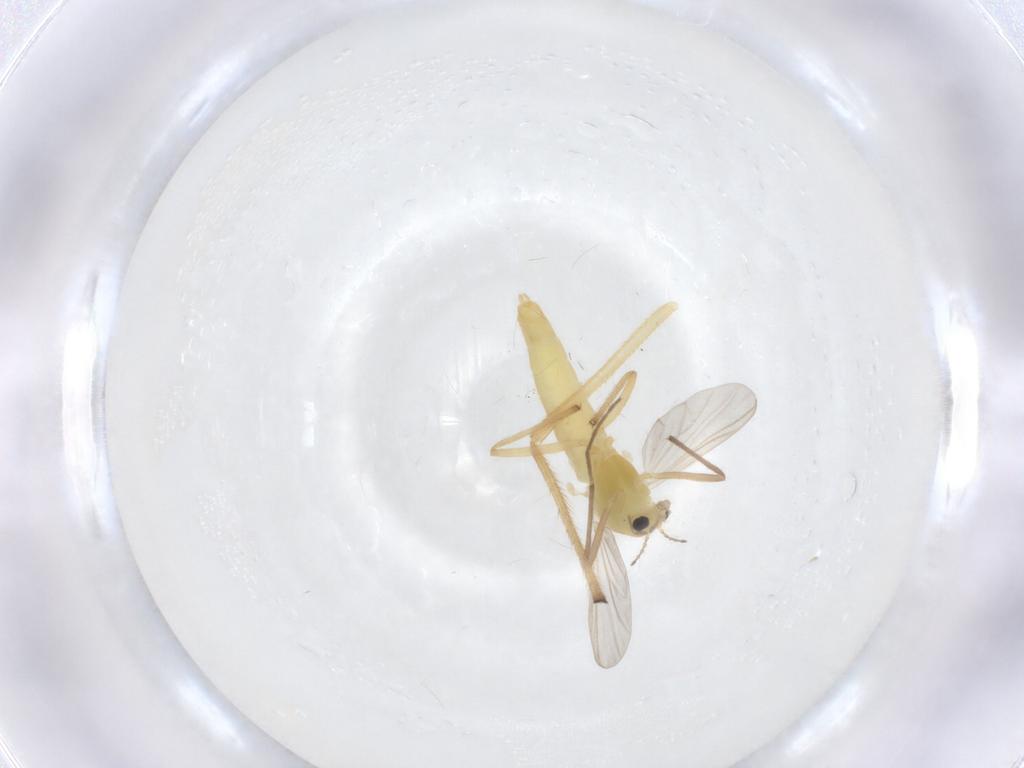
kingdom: Animalia
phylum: Arthropoda
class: Insecta
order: Diptera
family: Chironomidae
